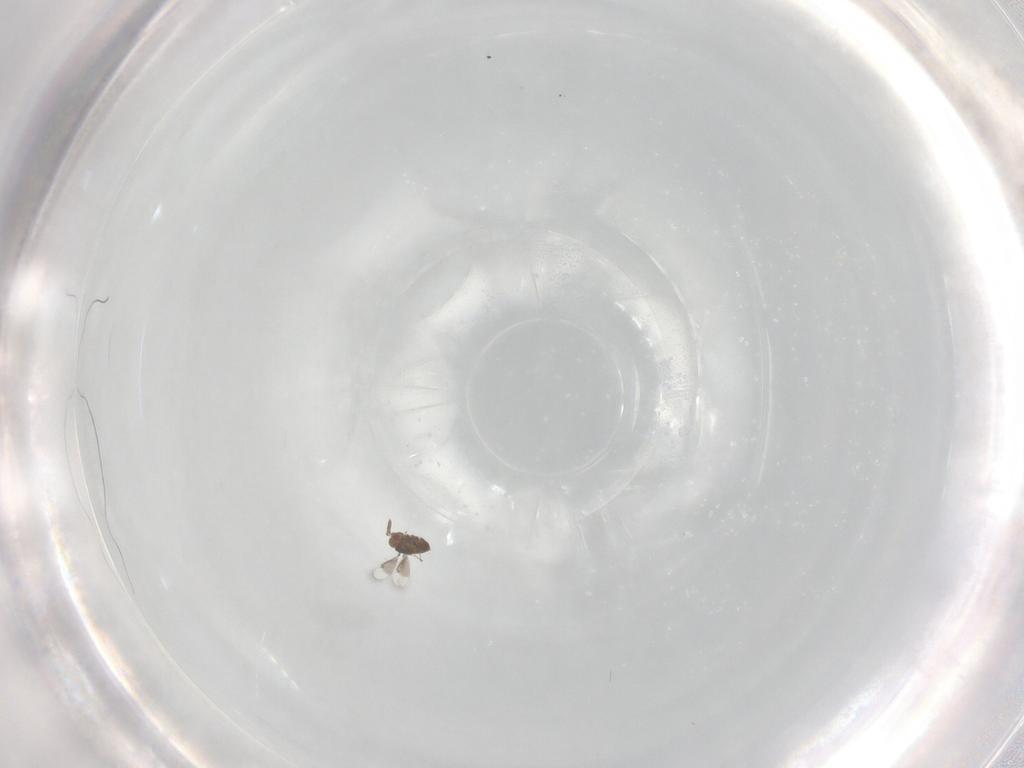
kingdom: Animalia
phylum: Arthropoda
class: Insecta
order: Hymenoptera
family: Trichogrammatidae
